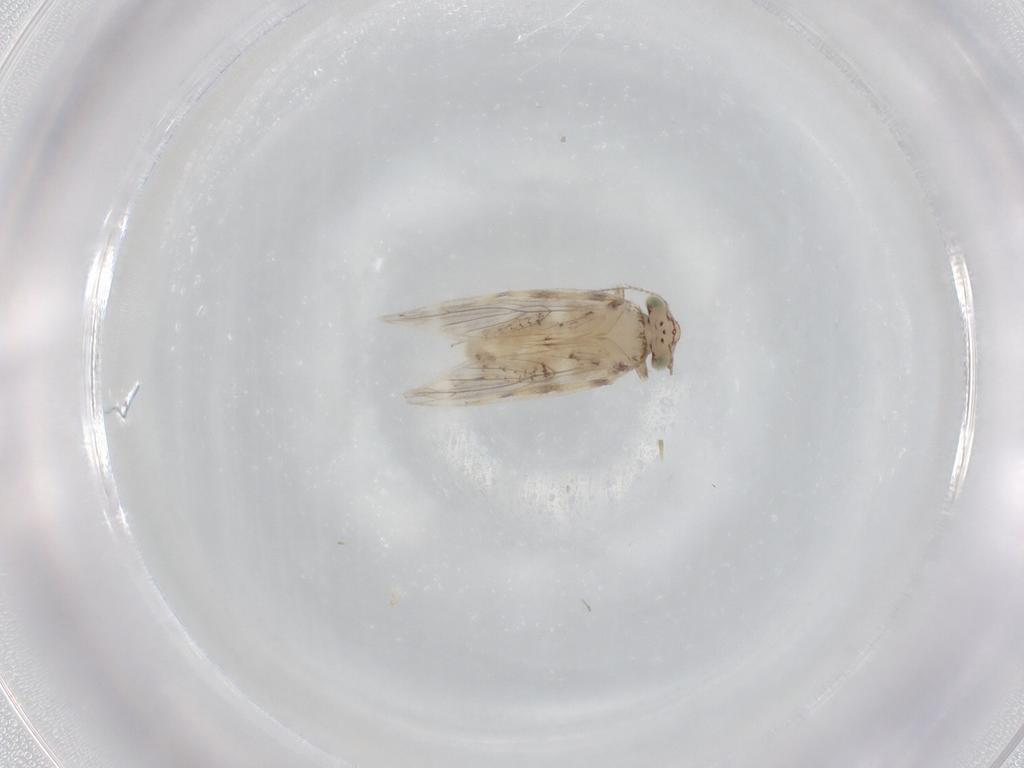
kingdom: Animalia
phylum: Arthropoda
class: Insecta
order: Psocodea
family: Lepidopsocidae
